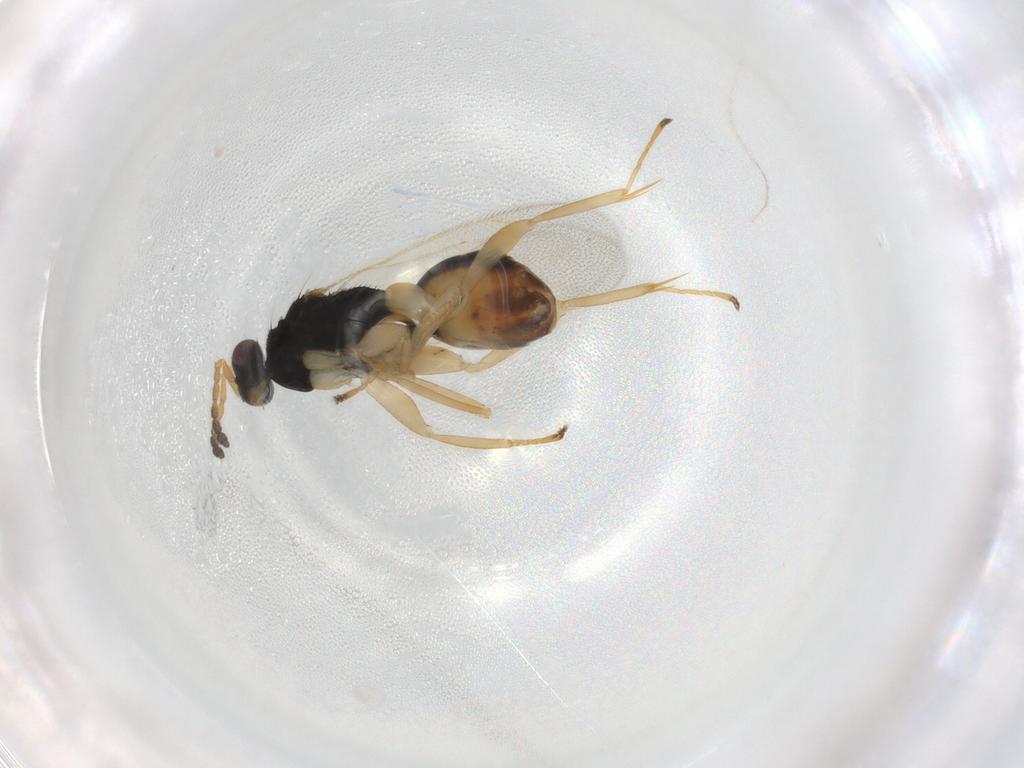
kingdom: Animalia
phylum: Arthropoda
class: Insecta
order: Hymenoptera
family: Eulophidae
